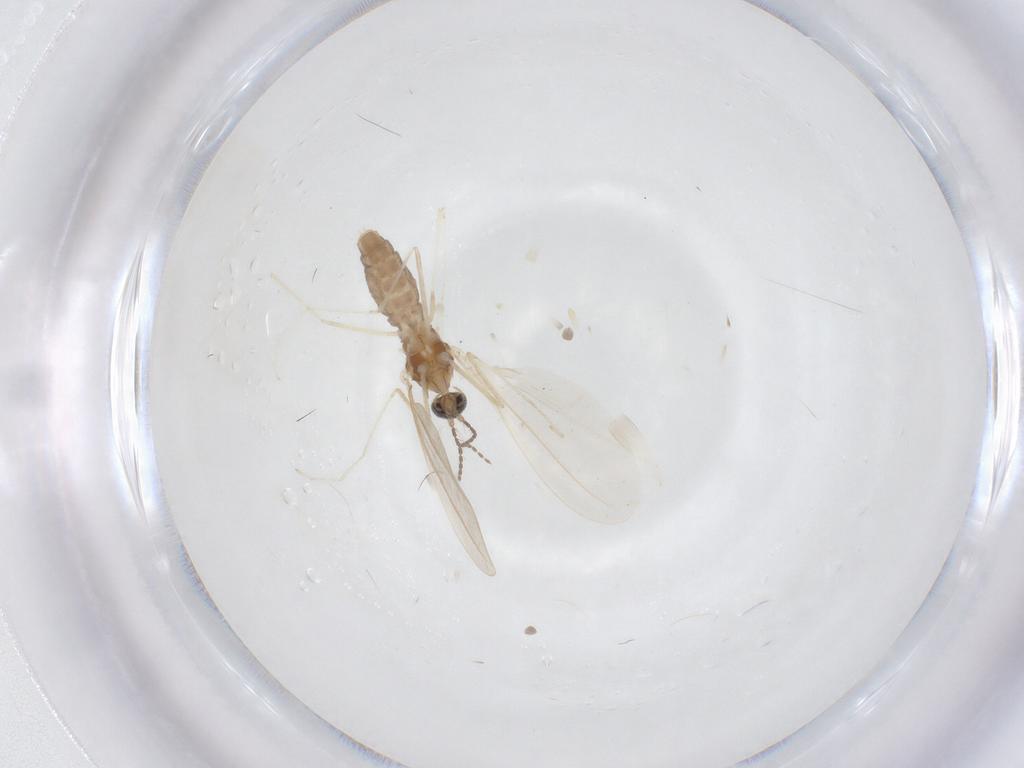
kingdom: Animalia
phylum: Arthropoda
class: Insecta
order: Diptera
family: Cecidomyiidae
